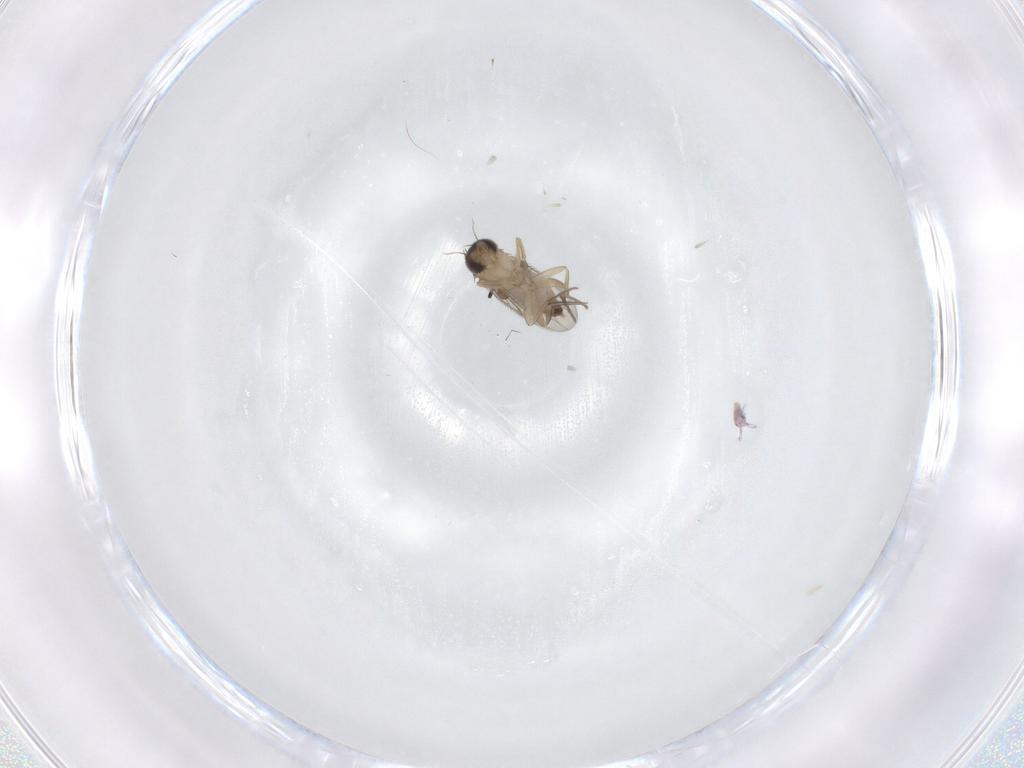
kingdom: Animalia
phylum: Arthropoda
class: Insecta
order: Diptera
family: Phoridae
